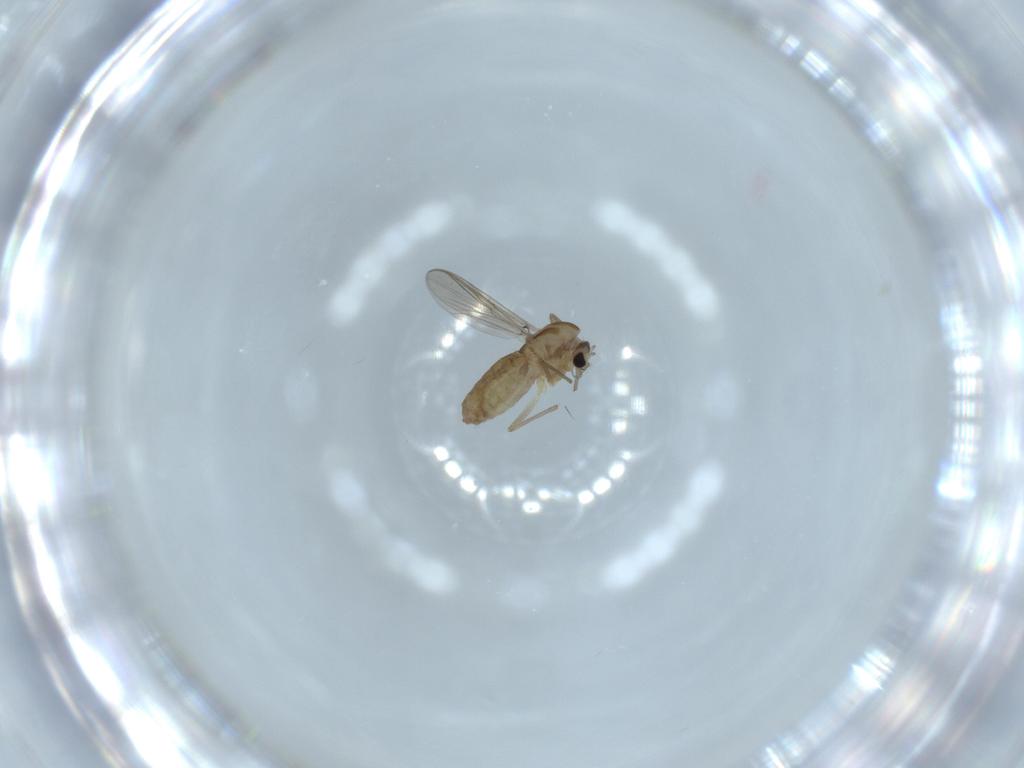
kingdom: Animalia
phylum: Arthropoda
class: Insecta
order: Diptera
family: Chironomidae
